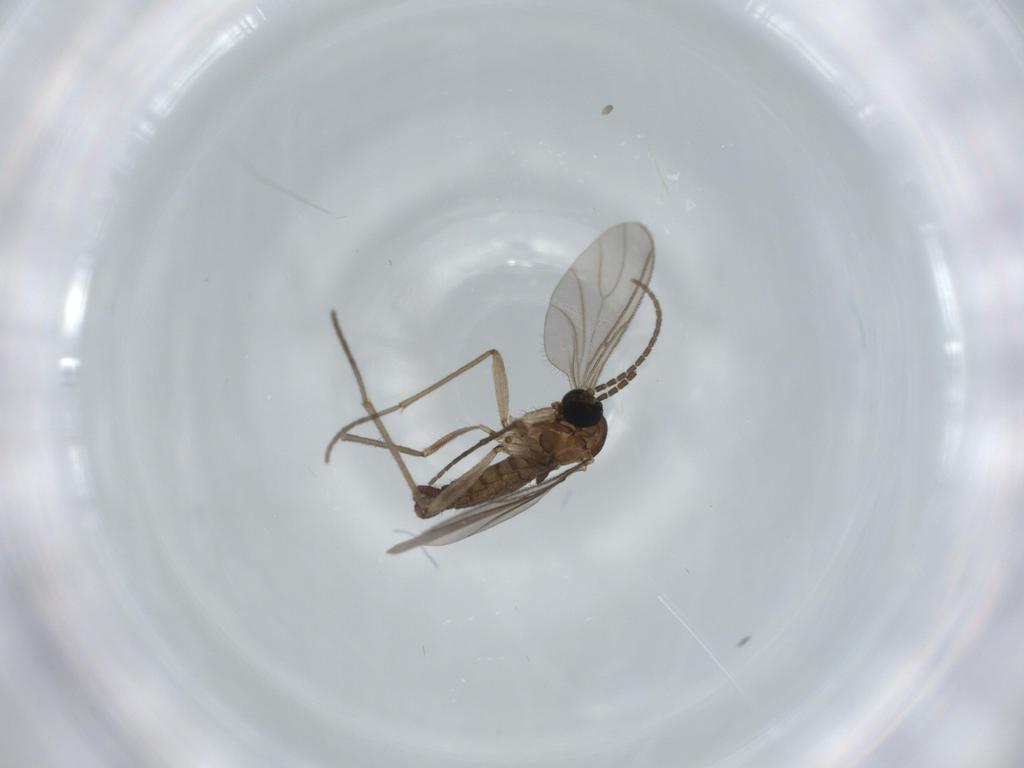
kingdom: Animalia
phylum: Arthropoda
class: Insecta
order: Diptera
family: Sciaridae
